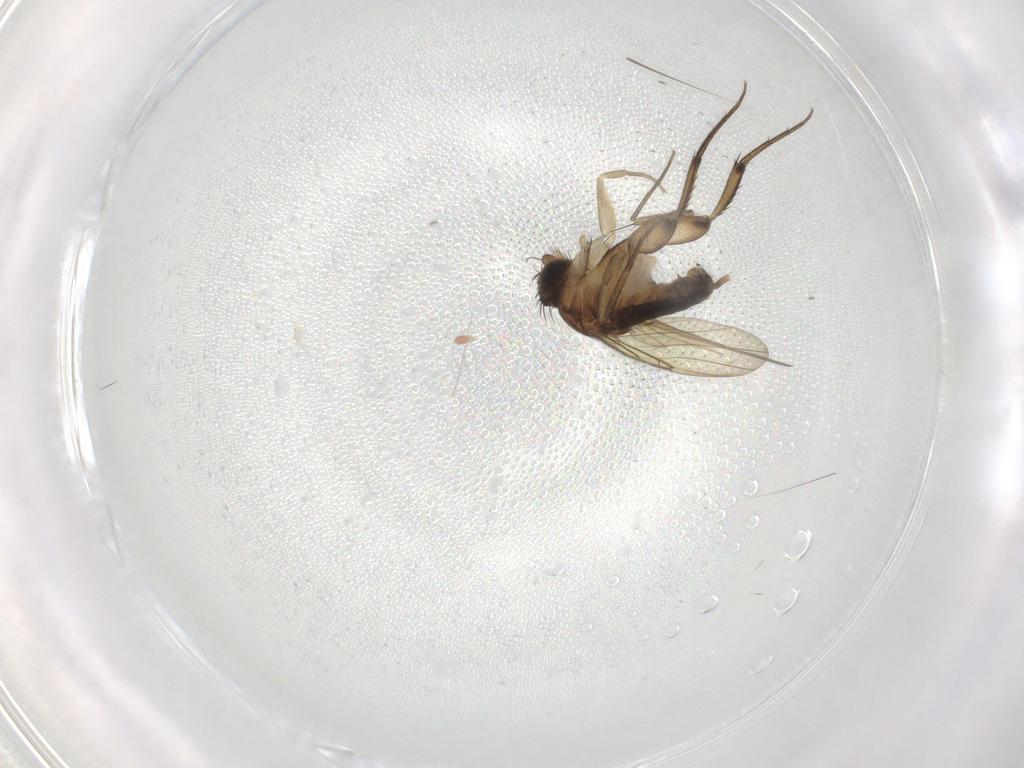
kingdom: Animalia
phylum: Arthropoda
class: Insecta
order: Diptera
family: Phoridae
